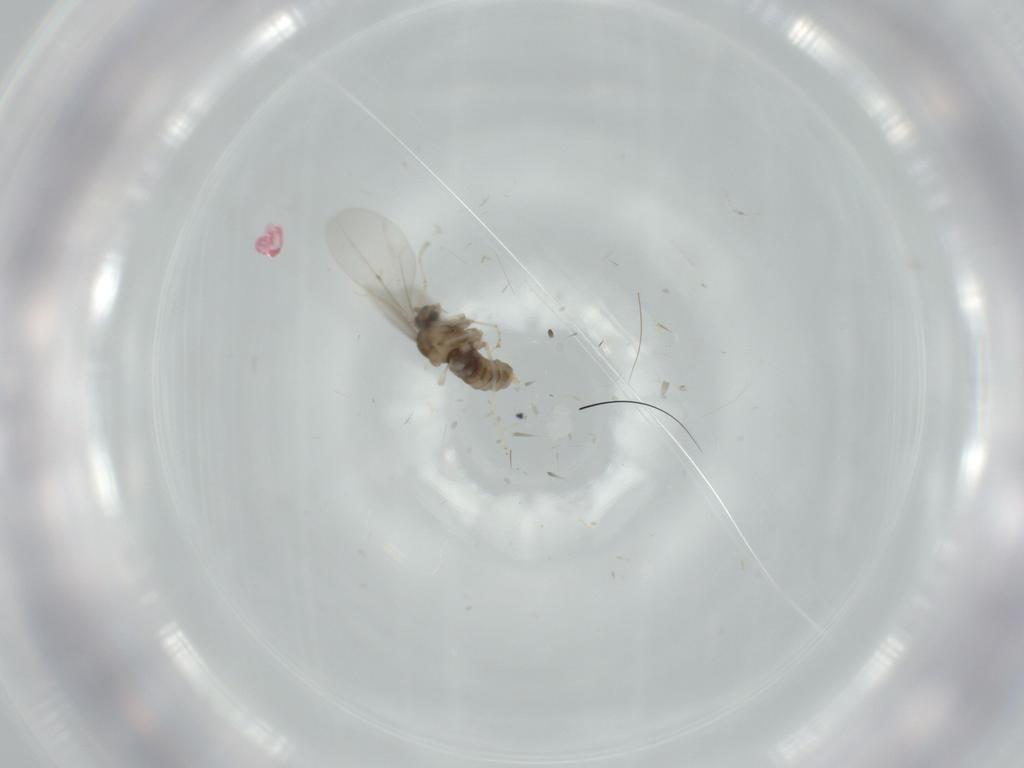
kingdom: Animalia
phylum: Arthropoda
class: Insecta
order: Diptera
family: Cecidomyiidae
